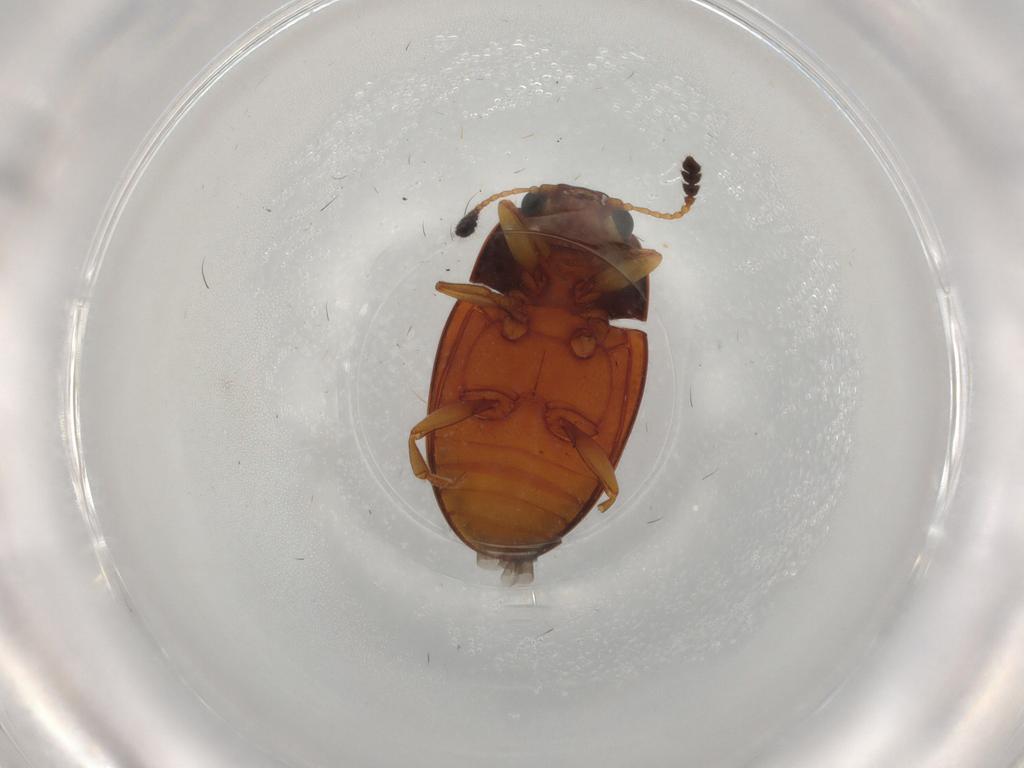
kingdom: Animalia
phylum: Arthropoda
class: Insecta
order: Coleoptera
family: Erotylidae
